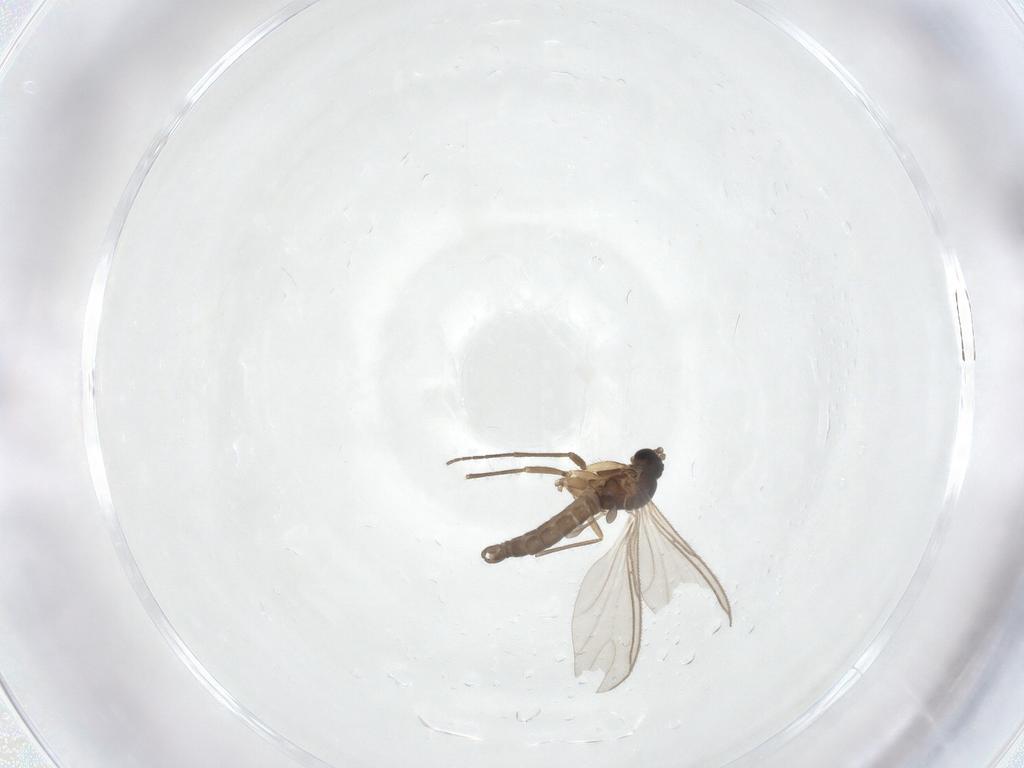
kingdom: Animalia
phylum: Arthropoda
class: Insecta
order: Diptera
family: Sciaridae
